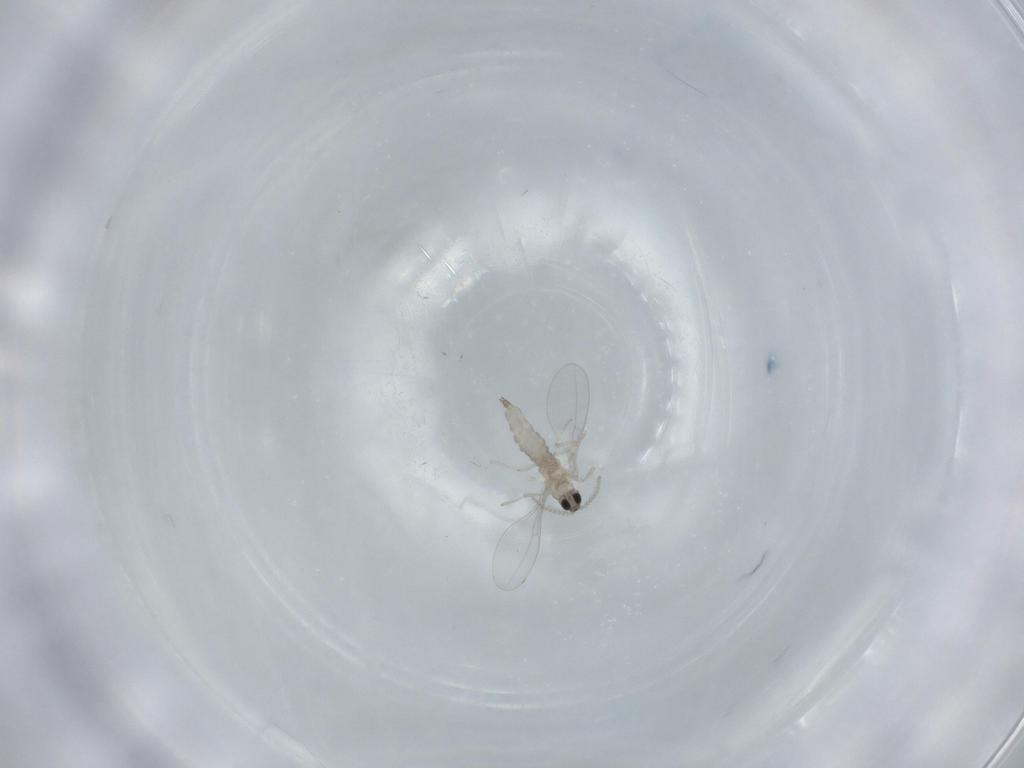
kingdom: Animalia
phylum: Arthropoda
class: Insecta
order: Diptera
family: Cecidomyiidae
